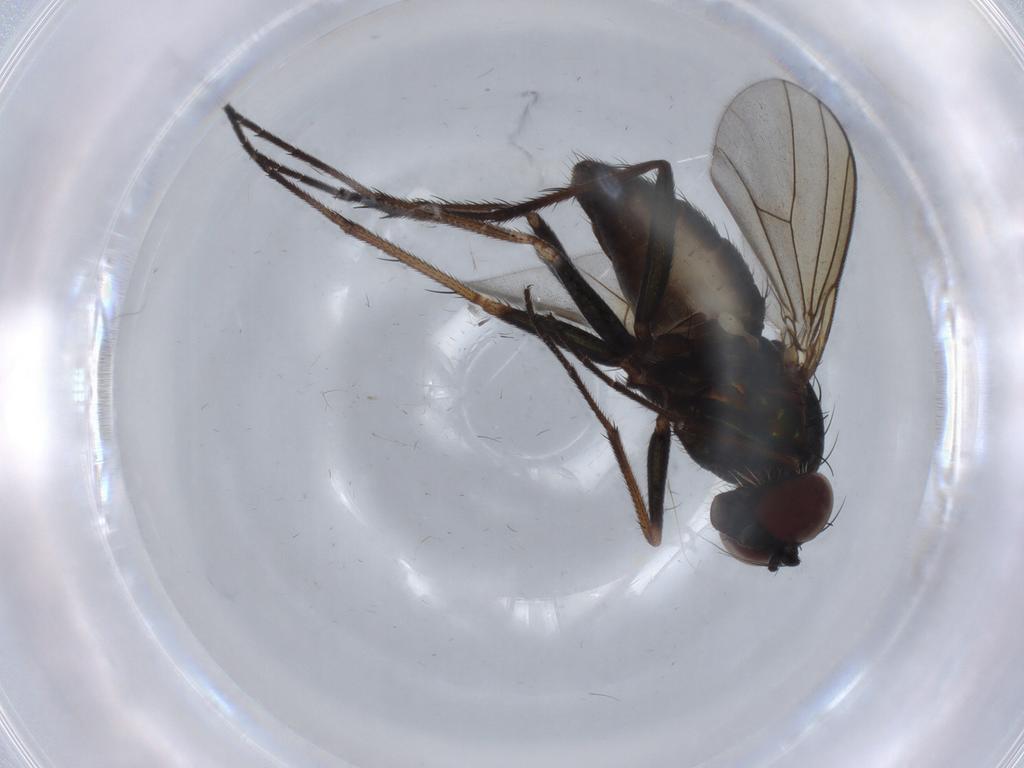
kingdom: Animalia
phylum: Arthropoda
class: Insecta
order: Diptera
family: Dolichopodidae
